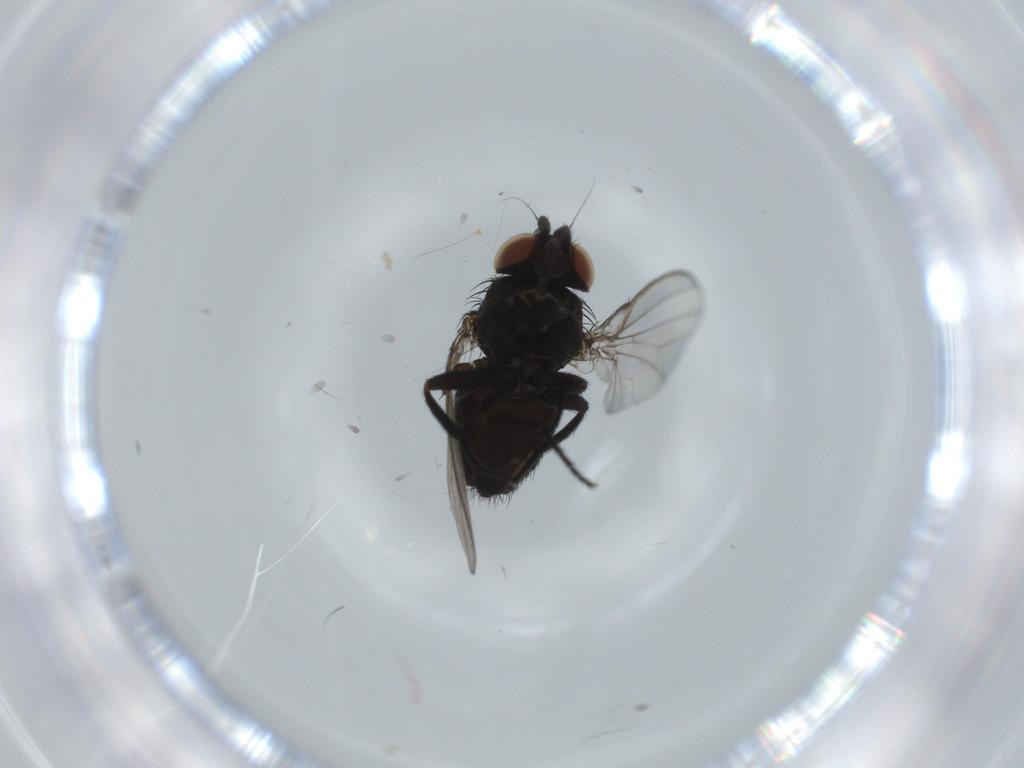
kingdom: Animalia
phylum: Arthropoda
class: Insecta
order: Diptera
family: Milichiidae
